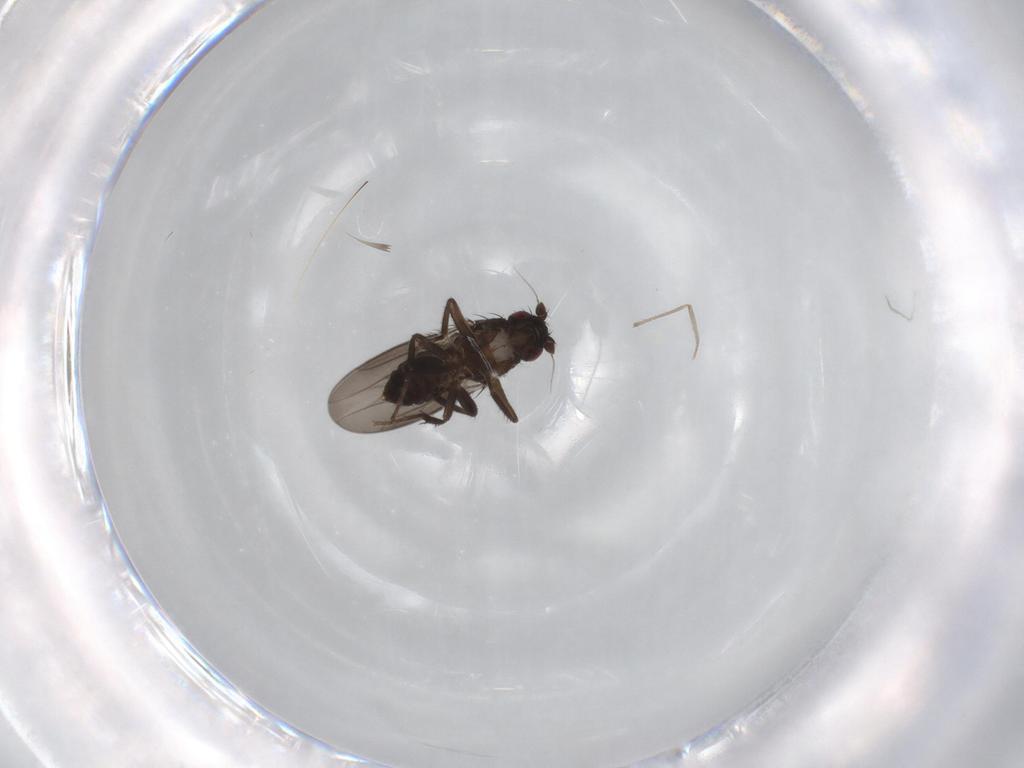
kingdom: Animalia
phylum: Arthropoda
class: Insecta
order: Diptera
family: Sphaeroceridae
